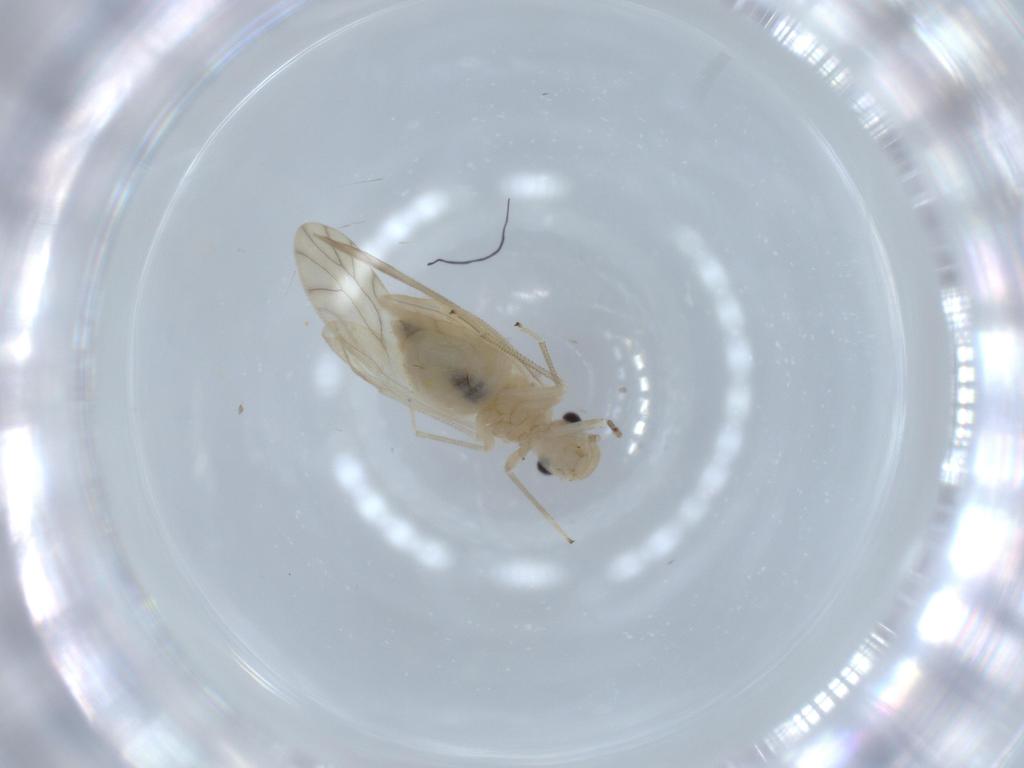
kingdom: Animalia
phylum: Arthropoda
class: Insecta
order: Psocodea
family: Caeciliusidae
